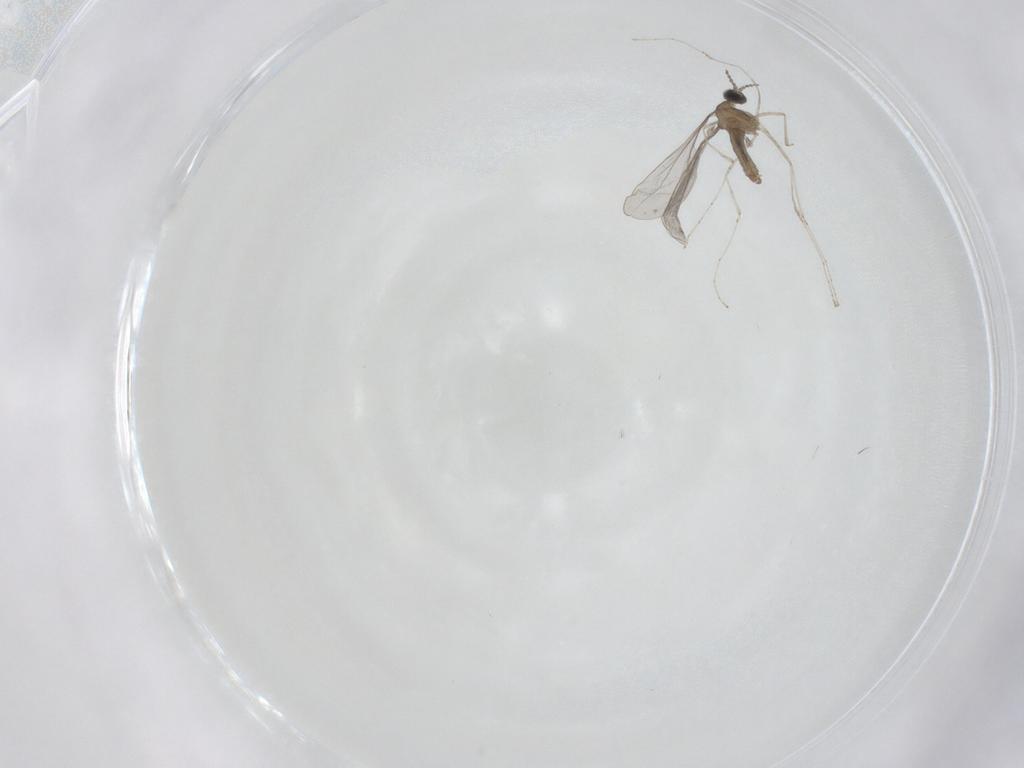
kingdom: Animalia
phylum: Arthropoda
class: Insecta
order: Diptera
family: Cecidomyiidae
